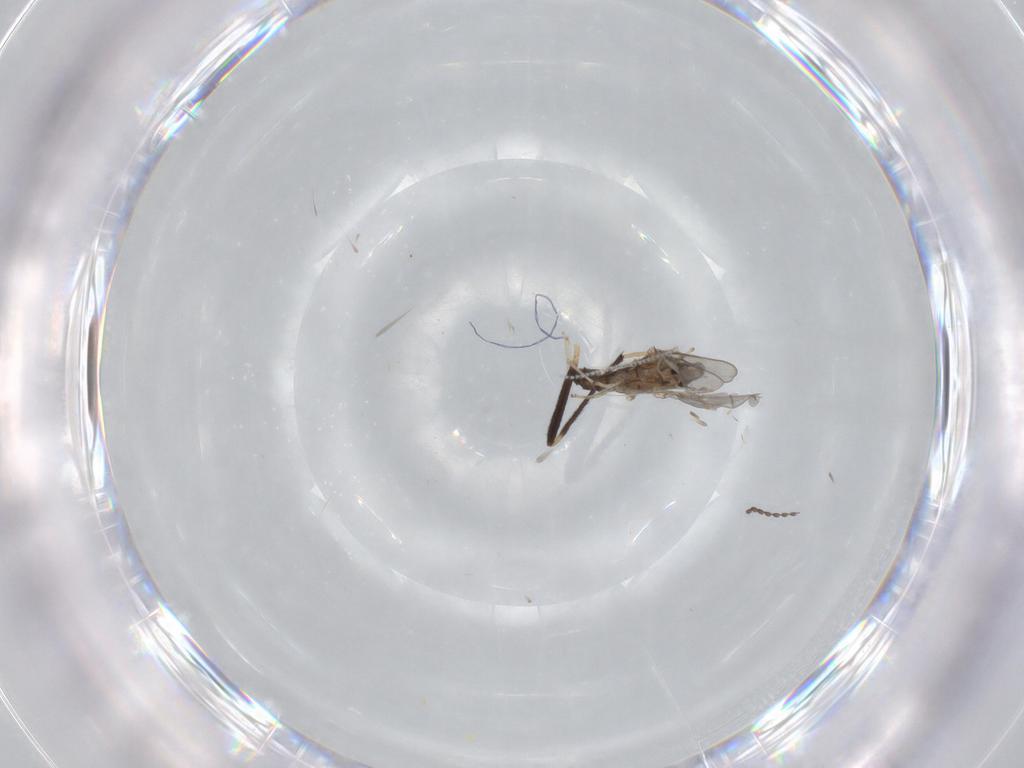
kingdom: Animalia
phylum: Arthropoda
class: Insecta
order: Diptera
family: Cecidomyiidae
